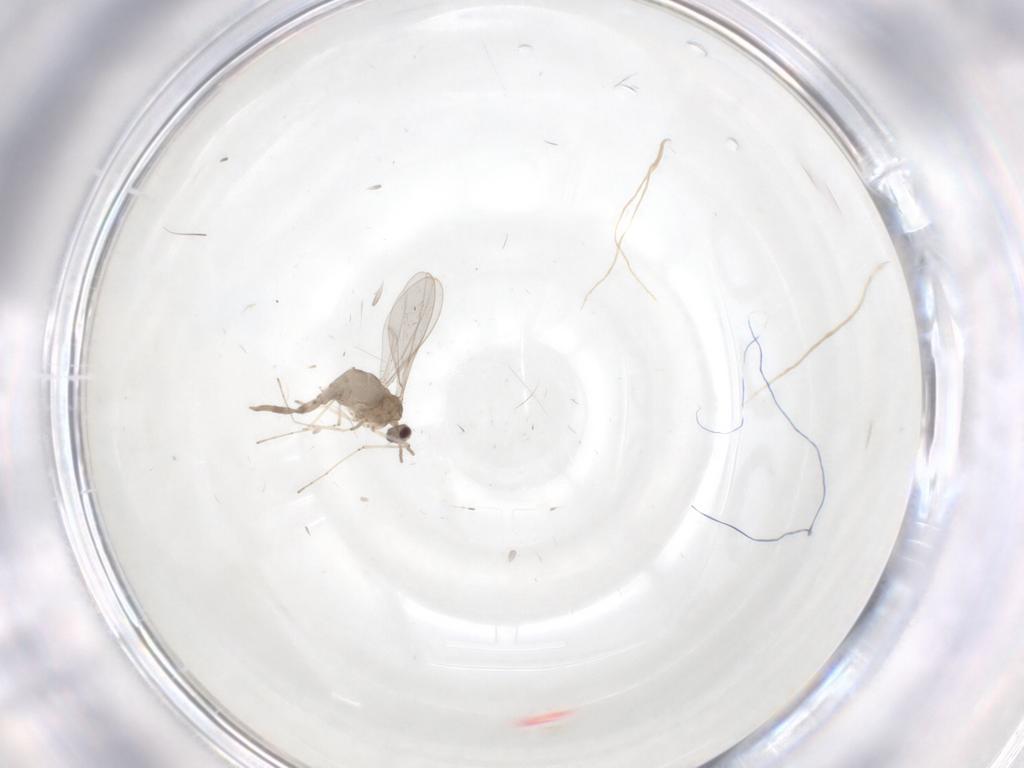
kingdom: Animalia
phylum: Arthropoda
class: Insecta
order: Diptera
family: Cecidomyiidae
